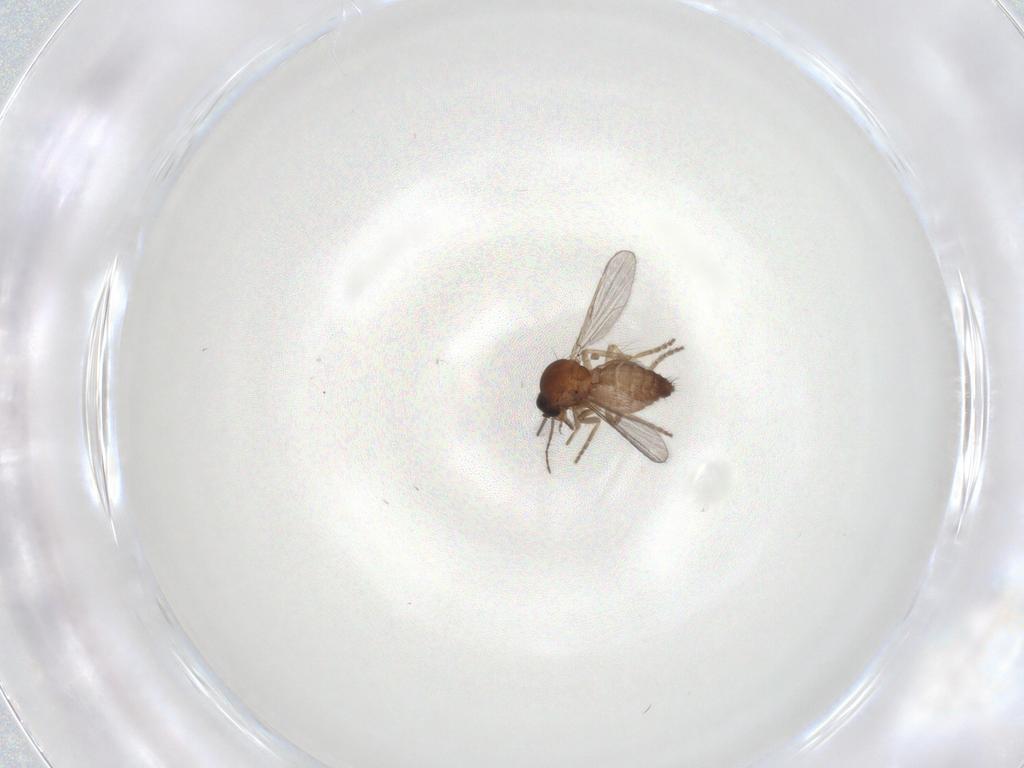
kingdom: Animalia
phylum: Arthropoda
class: Insecta
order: Diptera
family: Ceratopogonidae
